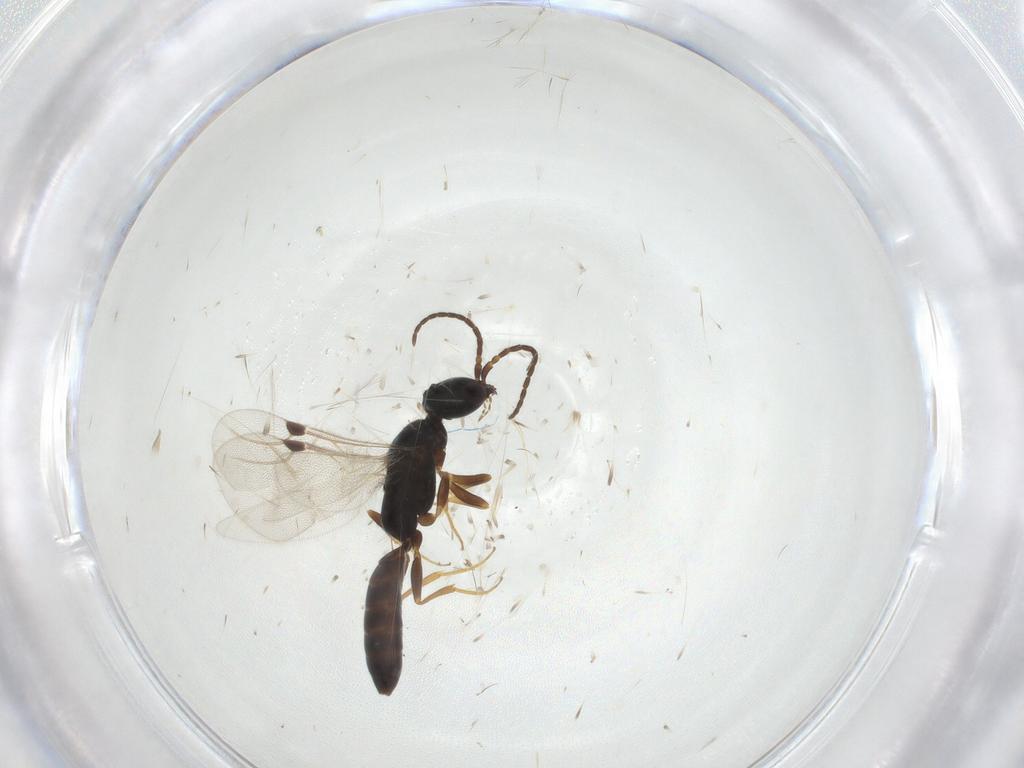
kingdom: Animalia
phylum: Arthropoda
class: Insecta
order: Hymenoptera
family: Bethylidae
